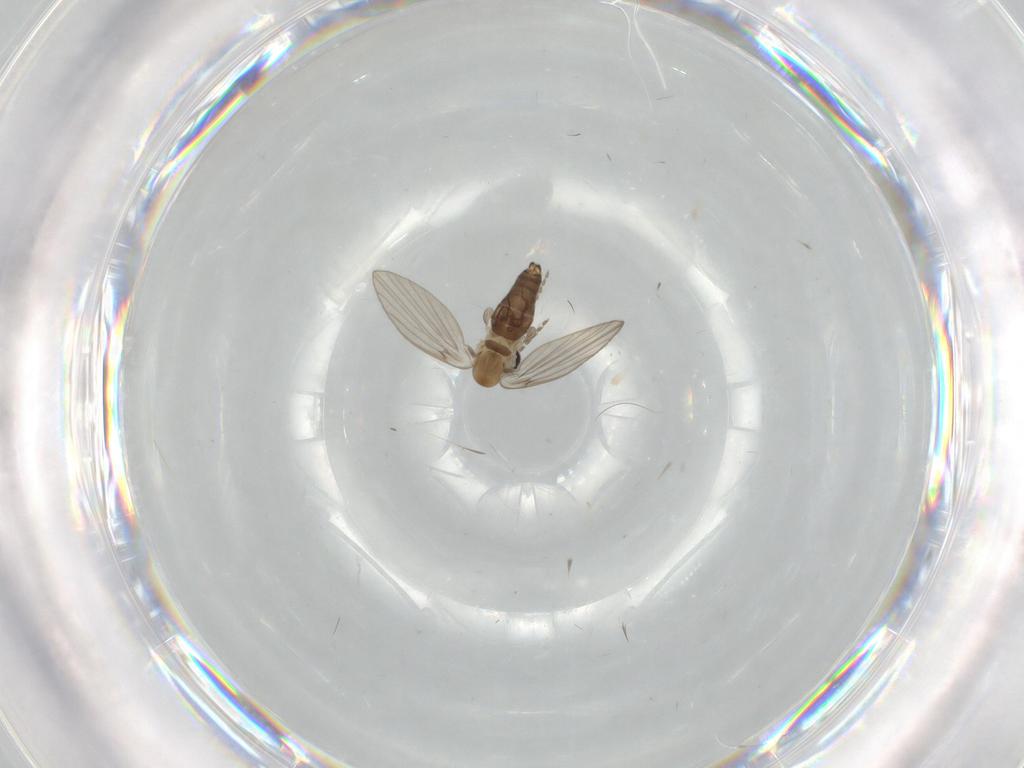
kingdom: Animalia
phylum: Arthropoda
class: Insecta
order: Diptera
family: Psychodidae
